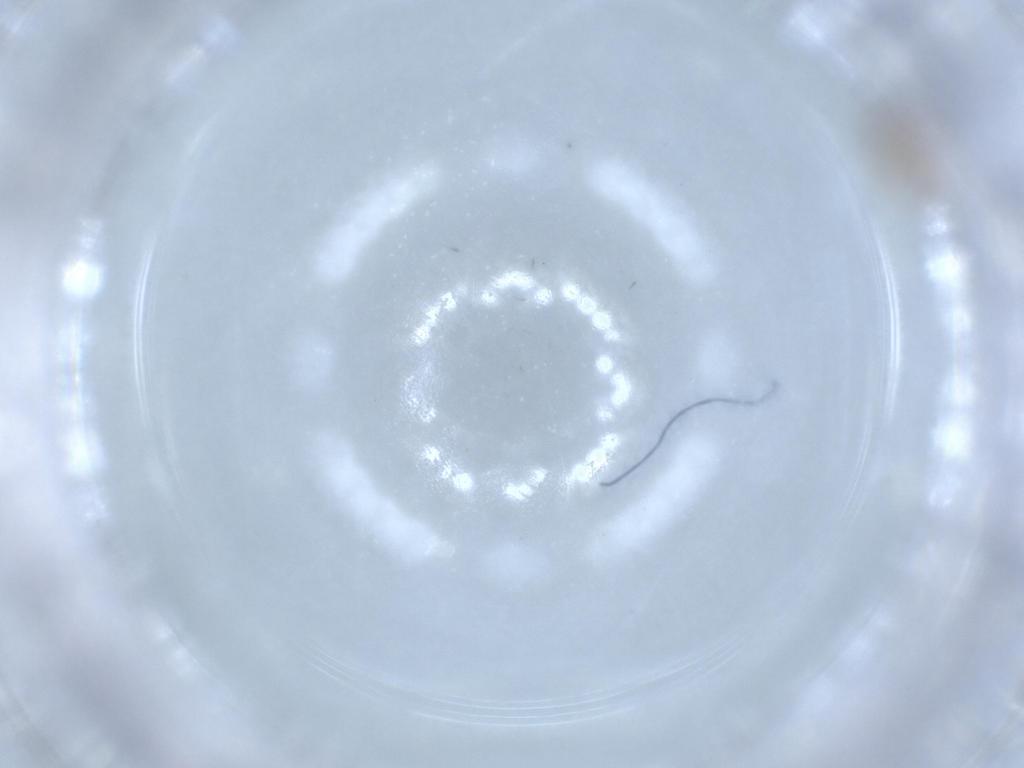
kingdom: Animalia
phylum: Arthropoda
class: Insecta
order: Hymenoptera
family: Mymaridae
